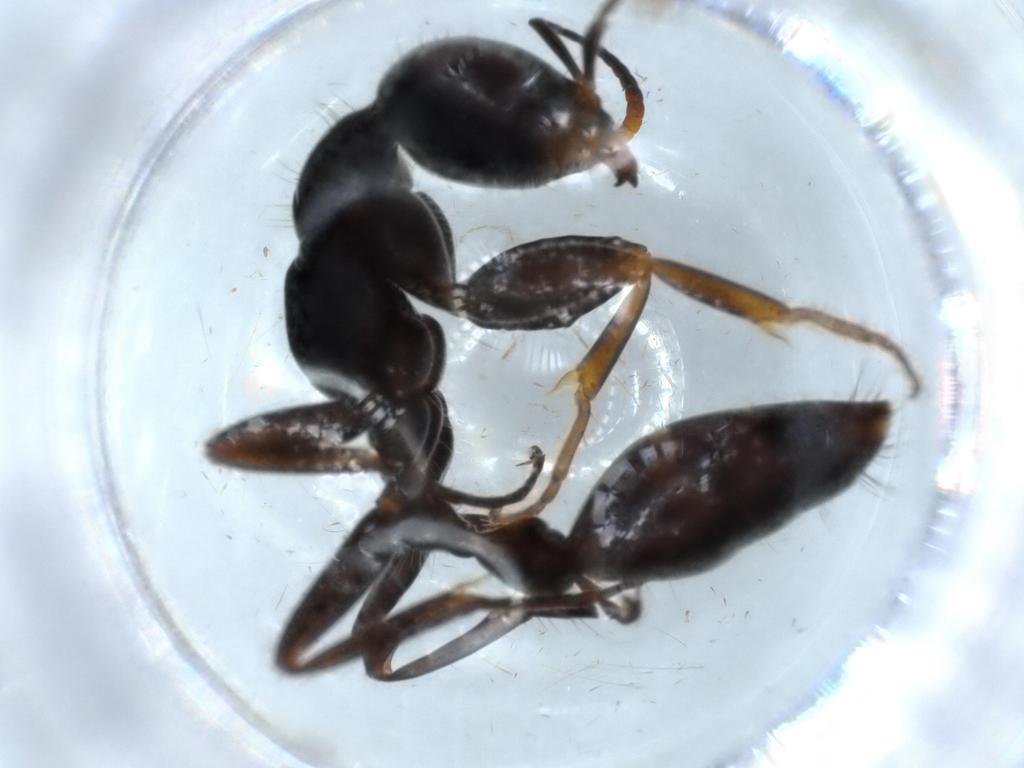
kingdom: Animalia
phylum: Arthropoda
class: Insecta
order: Hymenoptera
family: Formicidae
